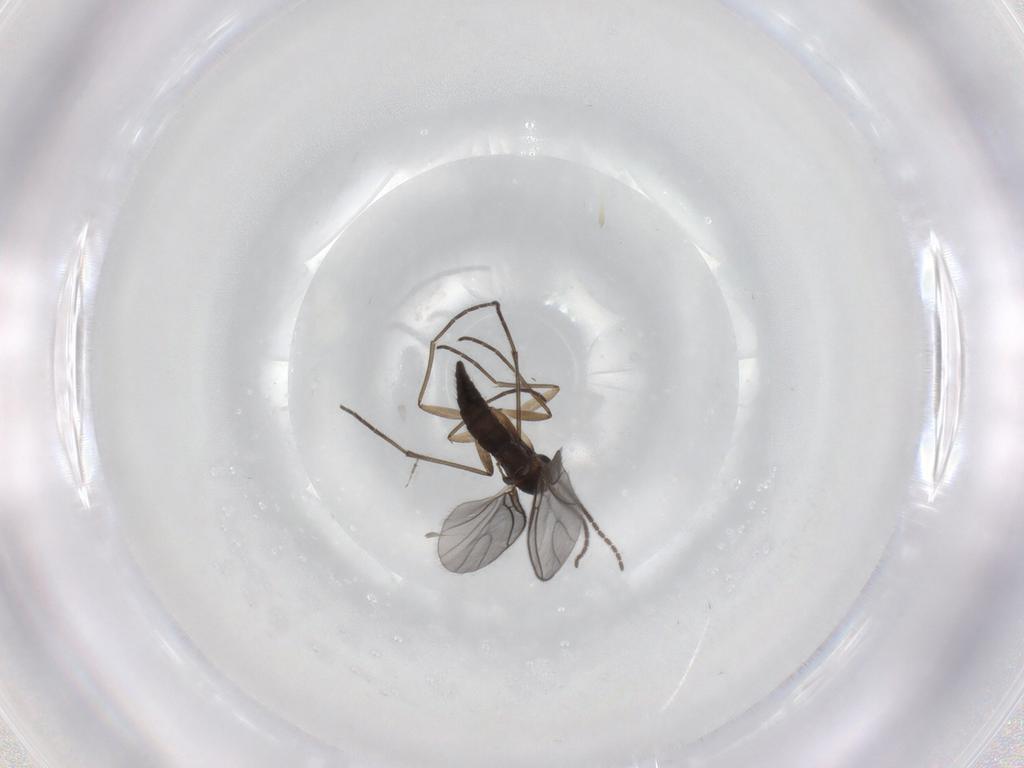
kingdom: Animalia
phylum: Arthropoda
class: Insecta
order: Diptera
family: Sciaridae
